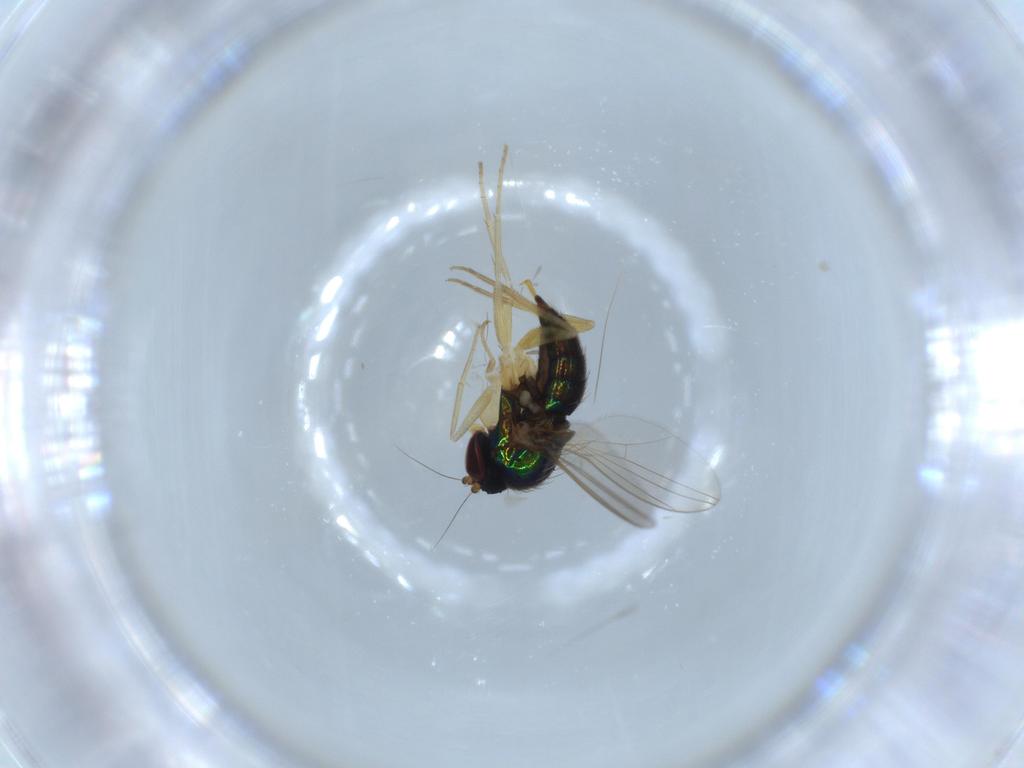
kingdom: Animalia
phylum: Arthropoda
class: Insecta
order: Diptera
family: Dolichopodidae
